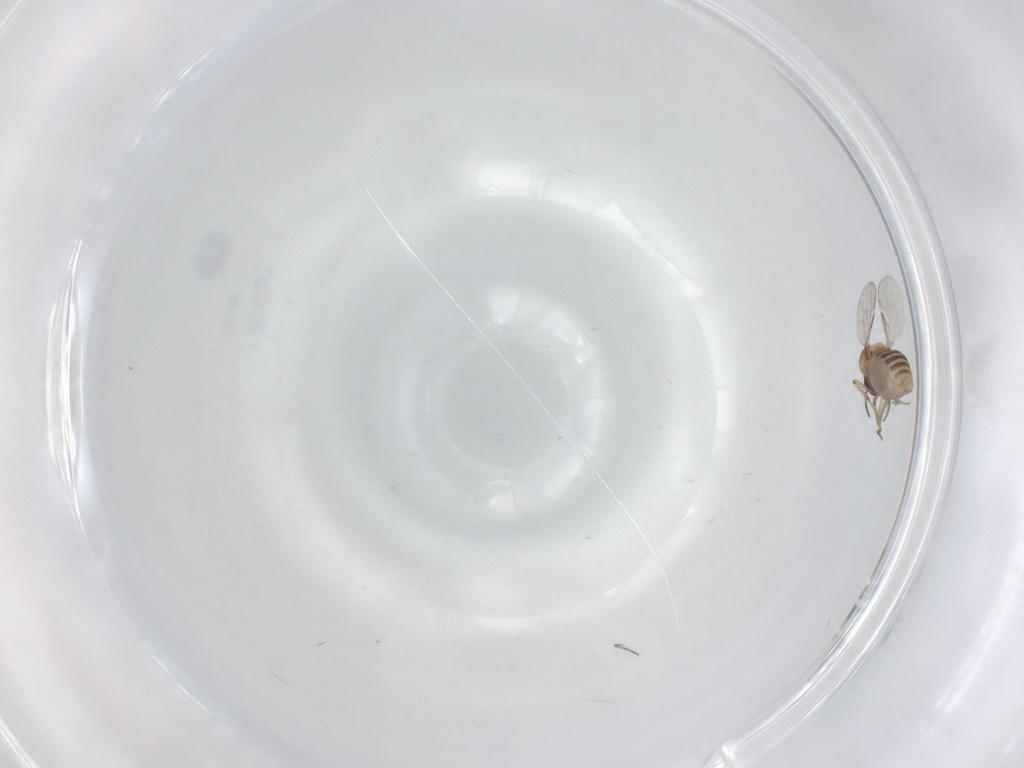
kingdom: Animalia
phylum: Arthropoda
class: Insecta
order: Diptera
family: Ceratopogonidae
